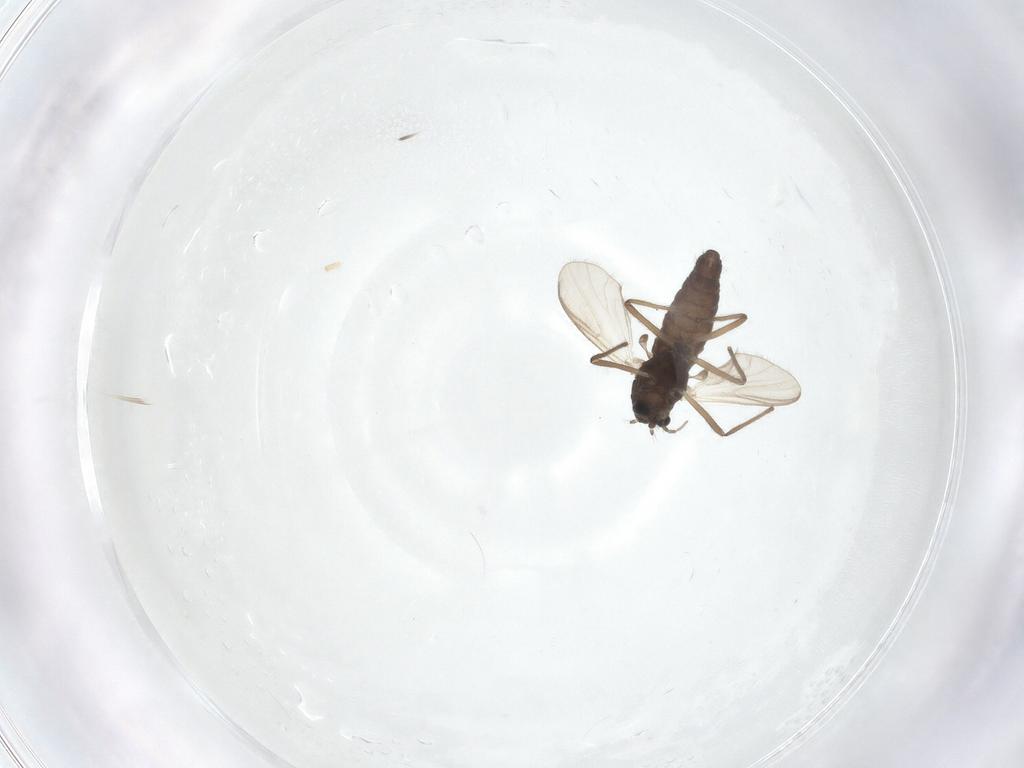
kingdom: Animalia
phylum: Arthropoda
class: Insecta
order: Diptera
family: Chironomidae
